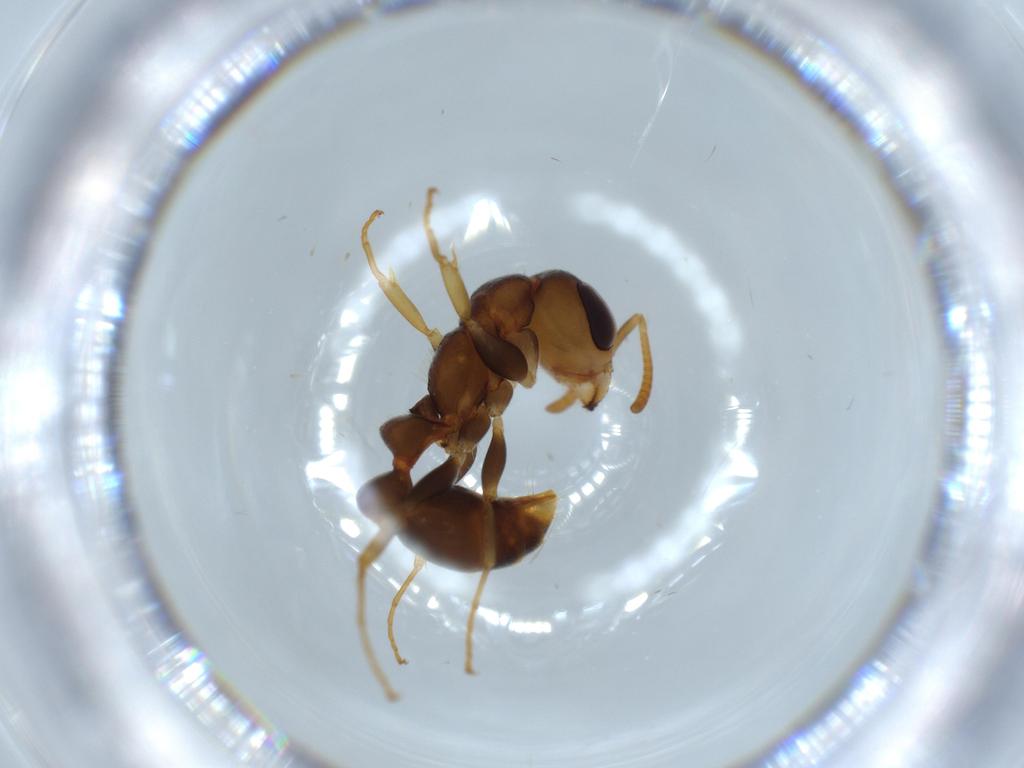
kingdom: Animalia
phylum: Arthropoda
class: Insecta
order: Hymenoptera
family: Formicidae
